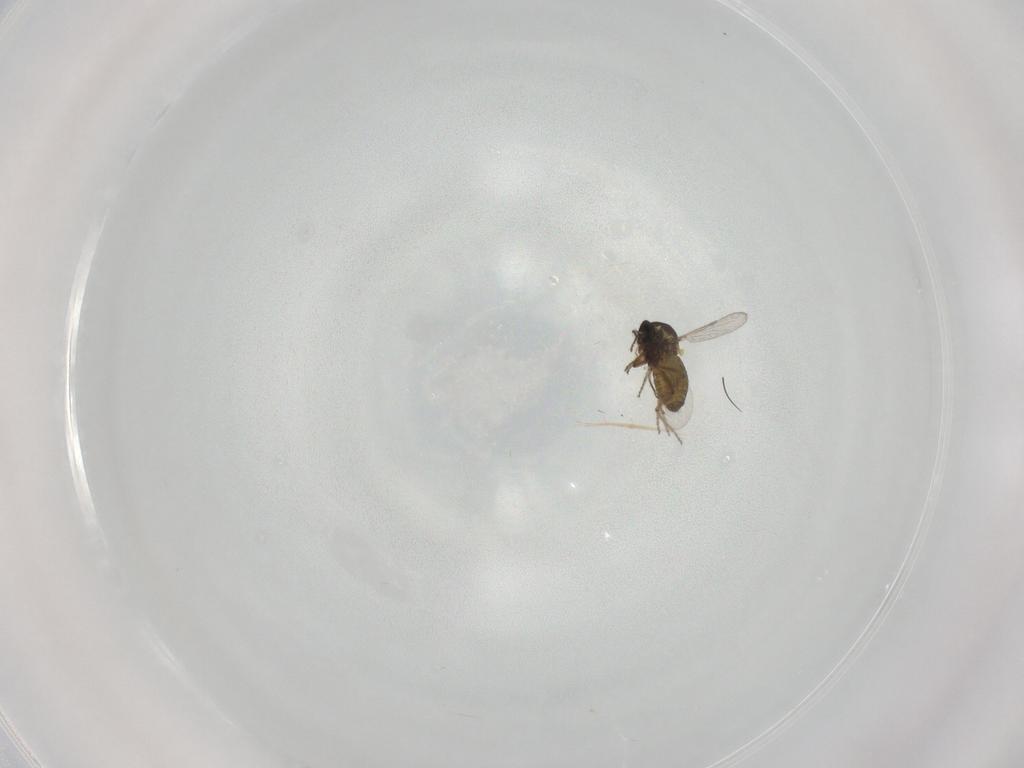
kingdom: Animalia
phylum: Arthropoda
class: Insecta
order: Diptera
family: Ceratopogonidae
